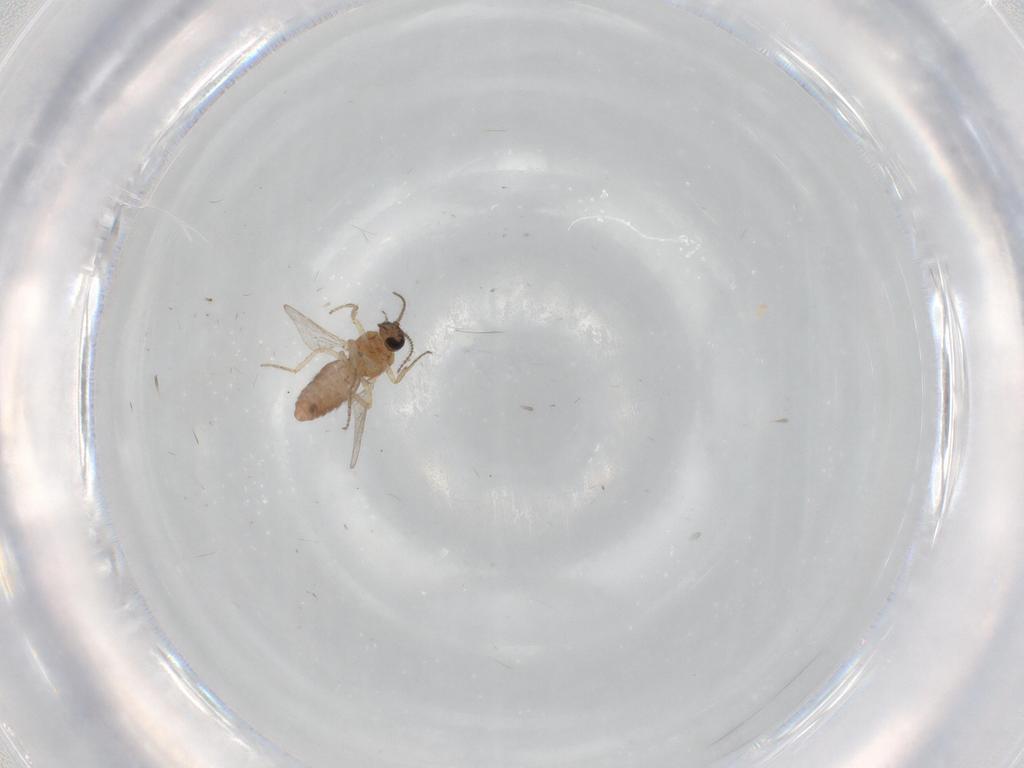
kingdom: Animalia
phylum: Arthropoda
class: Insecta
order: Diptera
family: Ceratopogonidae
